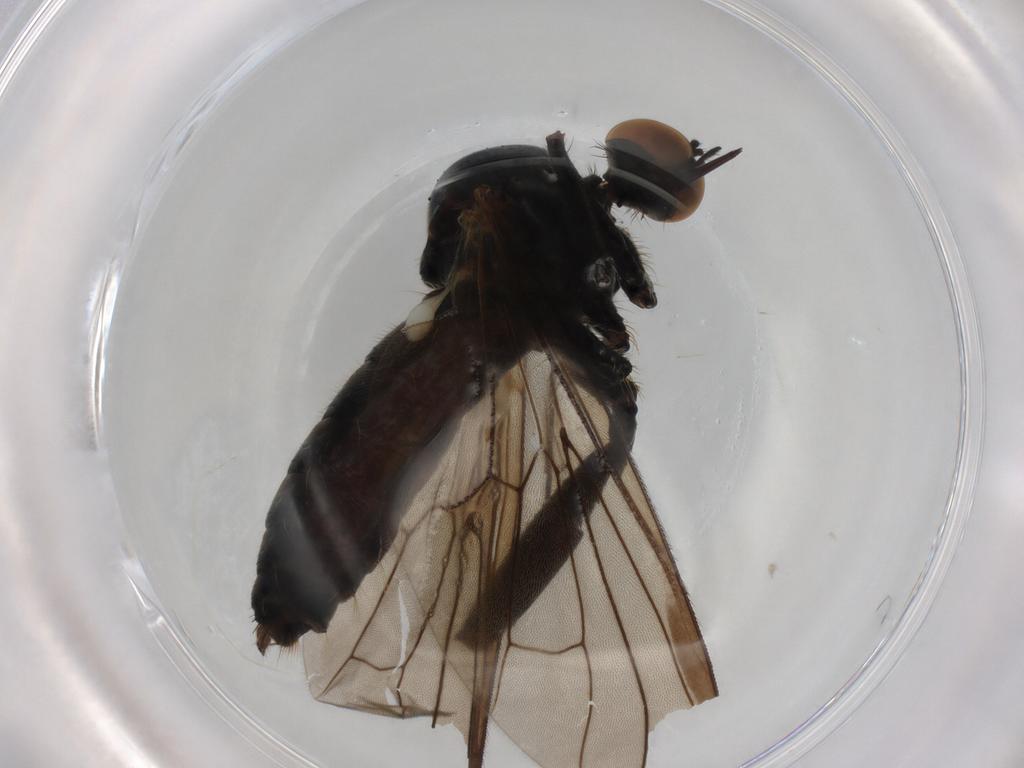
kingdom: Animalia
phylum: Arthropoda
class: Insecta
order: Diptera
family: Limoniidae
